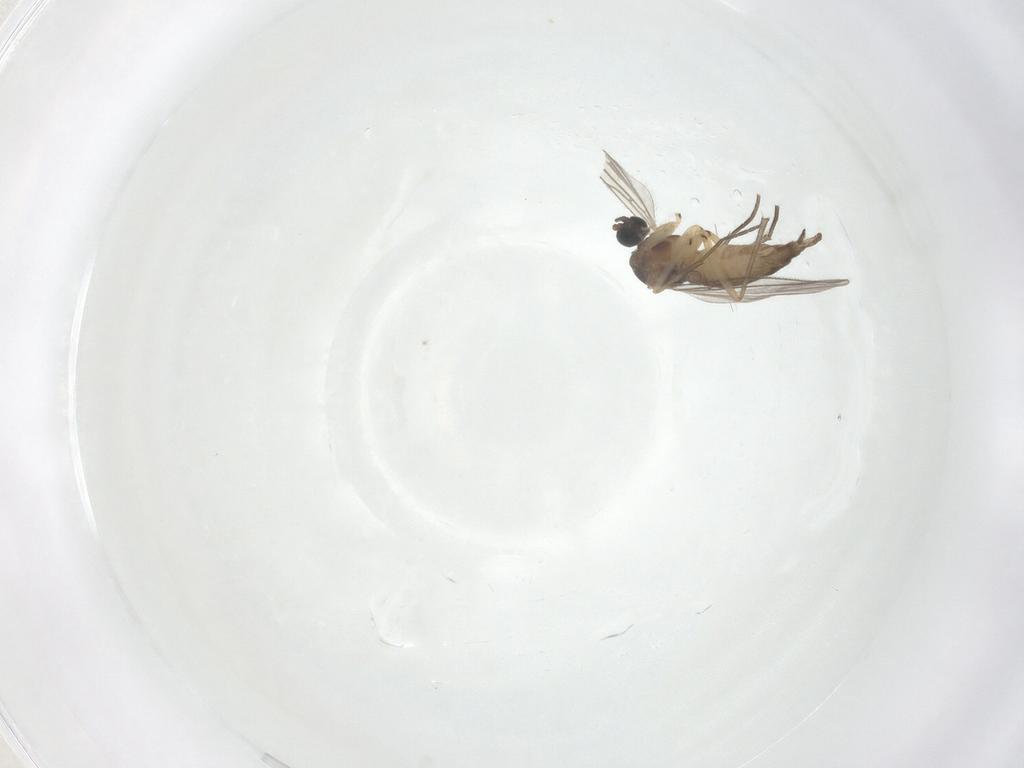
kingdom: Animalia
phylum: Arthropoda
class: Insecta
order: Diptera
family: Sciaridae
